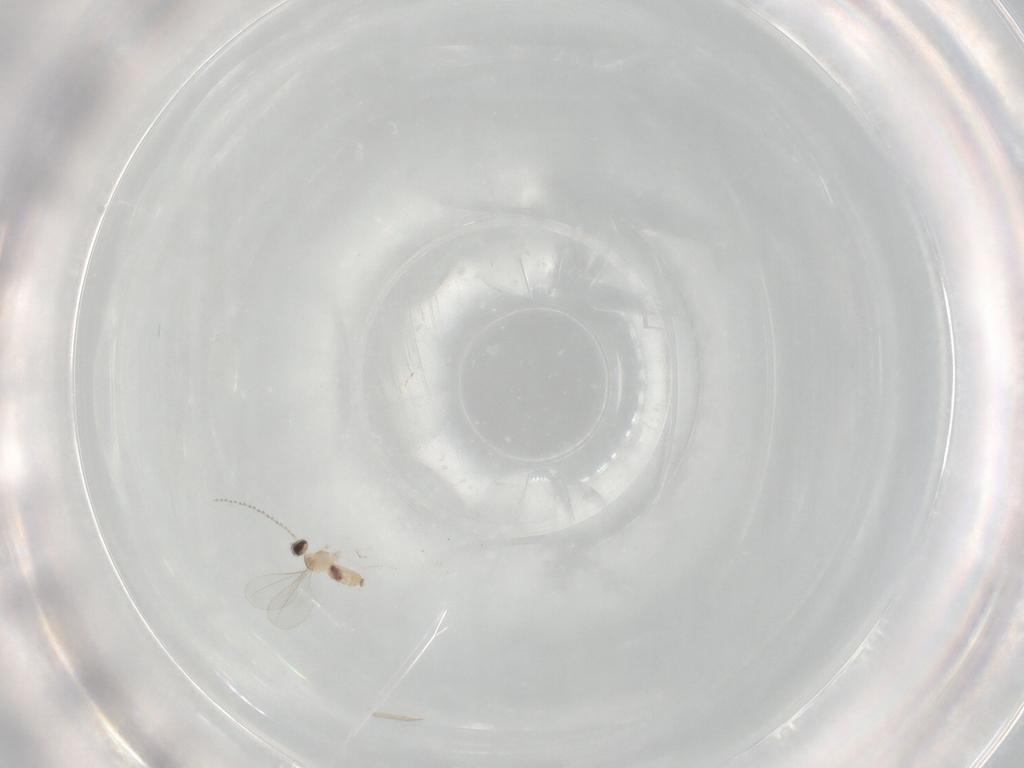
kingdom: Animalia
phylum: Arthropoda
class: Insecta
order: Diptera
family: Cecidomyiidae
